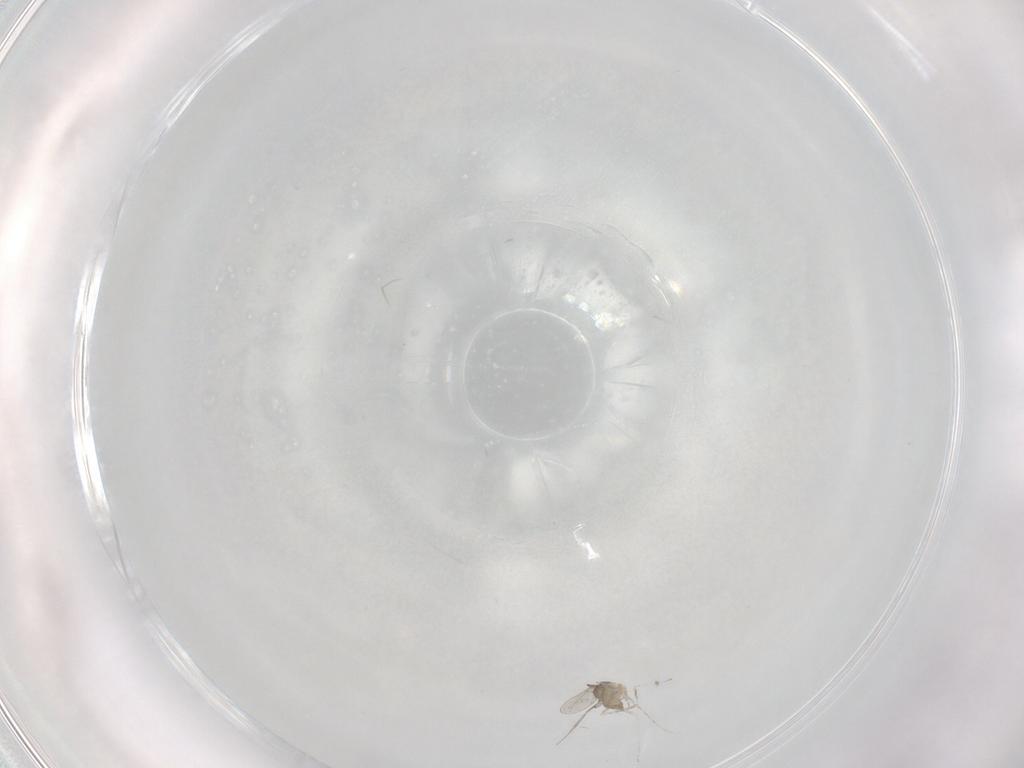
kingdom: Animalia
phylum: Arthropoda
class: Insecta
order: Diptera
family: Cecidomyiidae
